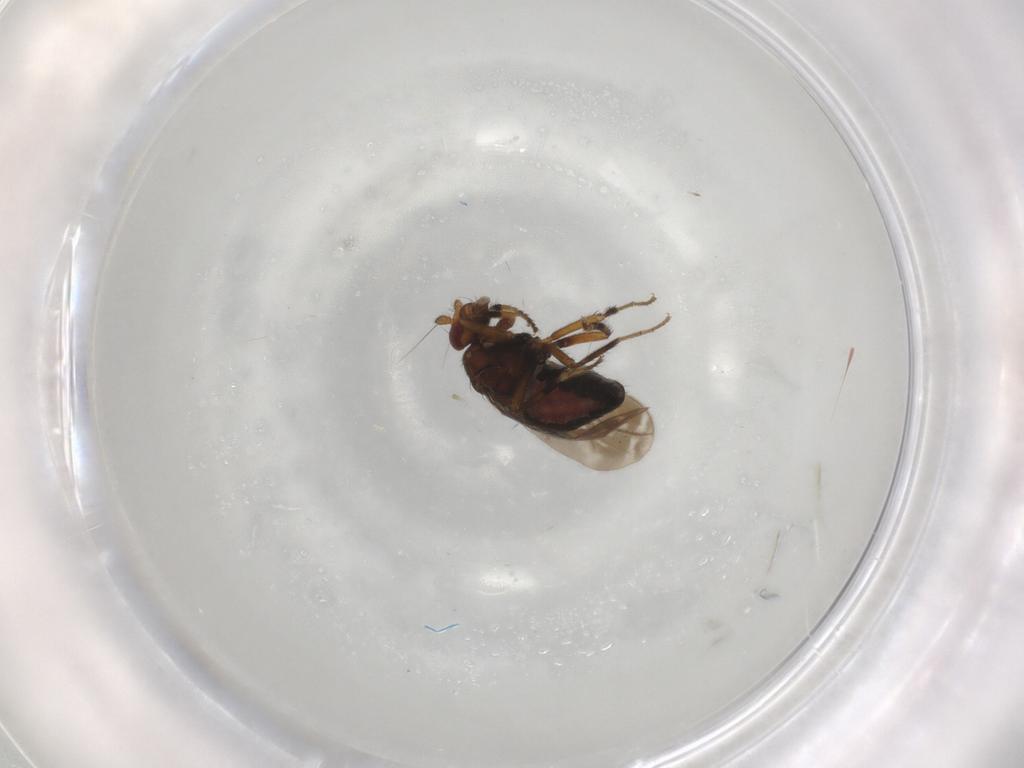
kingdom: Animalia
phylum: Arthropoda
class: Insecta
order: Diptera
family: Sphaeroceridae
